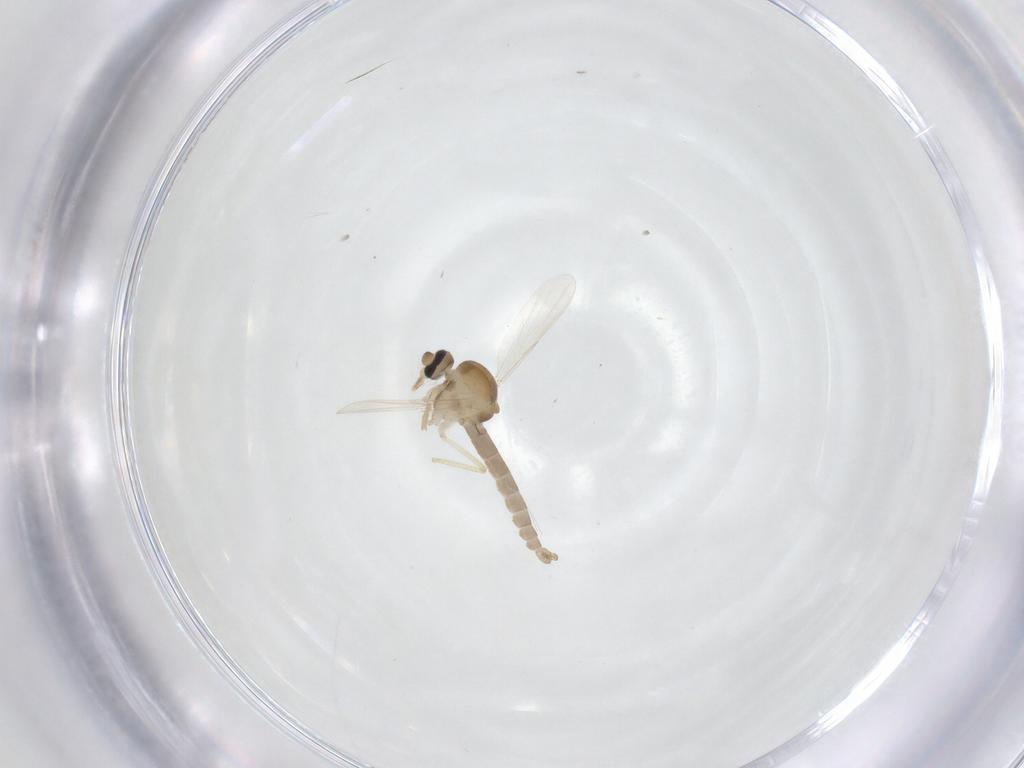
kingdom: Animalia
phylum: Arthropoda
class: Insecta
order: Diptera
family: Ceratopogonidae
